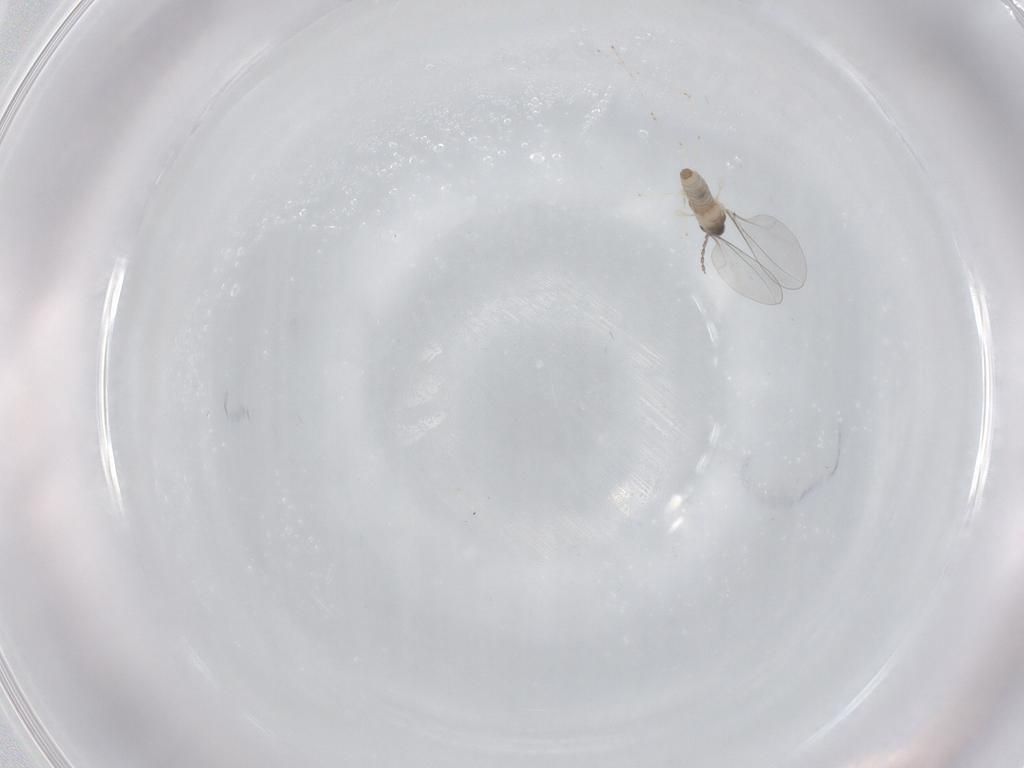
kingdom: Animalia
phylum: Arthropoda
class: Insecta
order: Diptera
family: Cecidomyiidae
